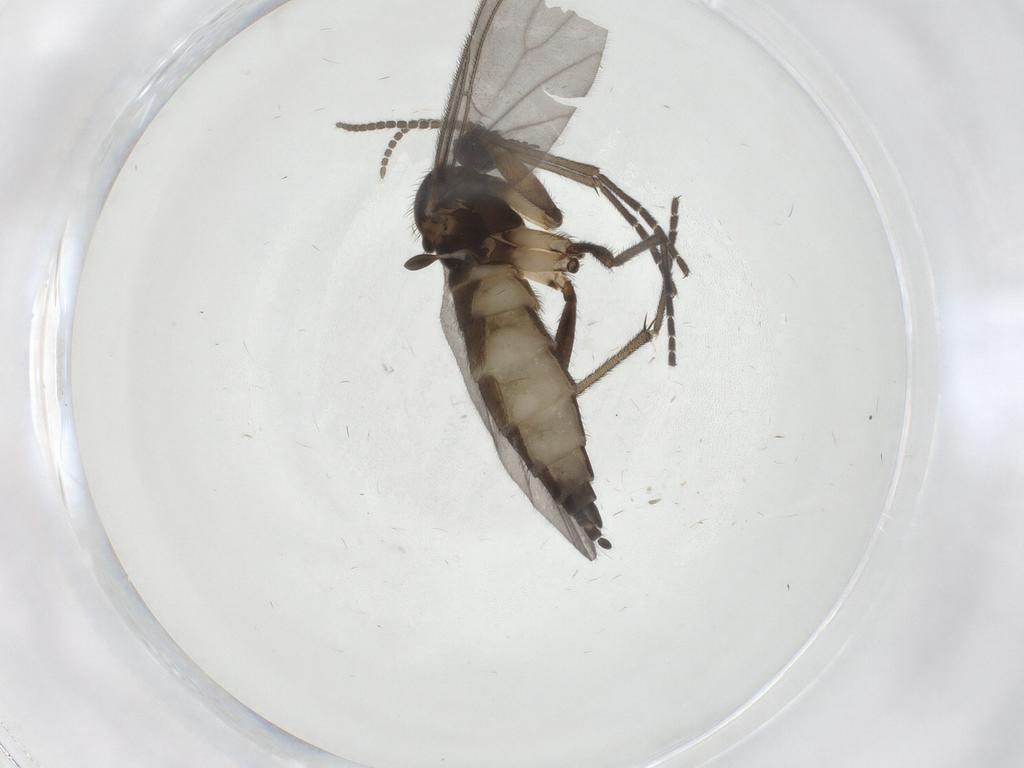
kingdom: Animalia
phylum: Arthropoda
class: Insecta
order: Diptera
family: Sciaridae
